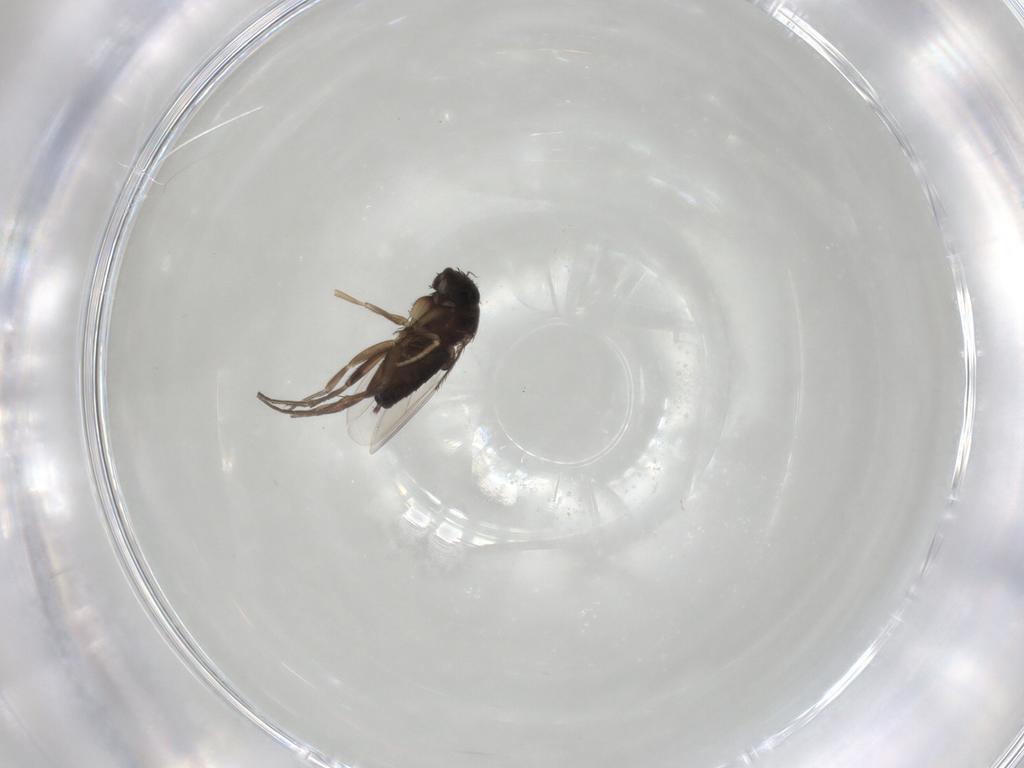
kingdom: Animalia
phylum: Arthropoda
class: Insecta
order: Diptera
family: Phoridae
